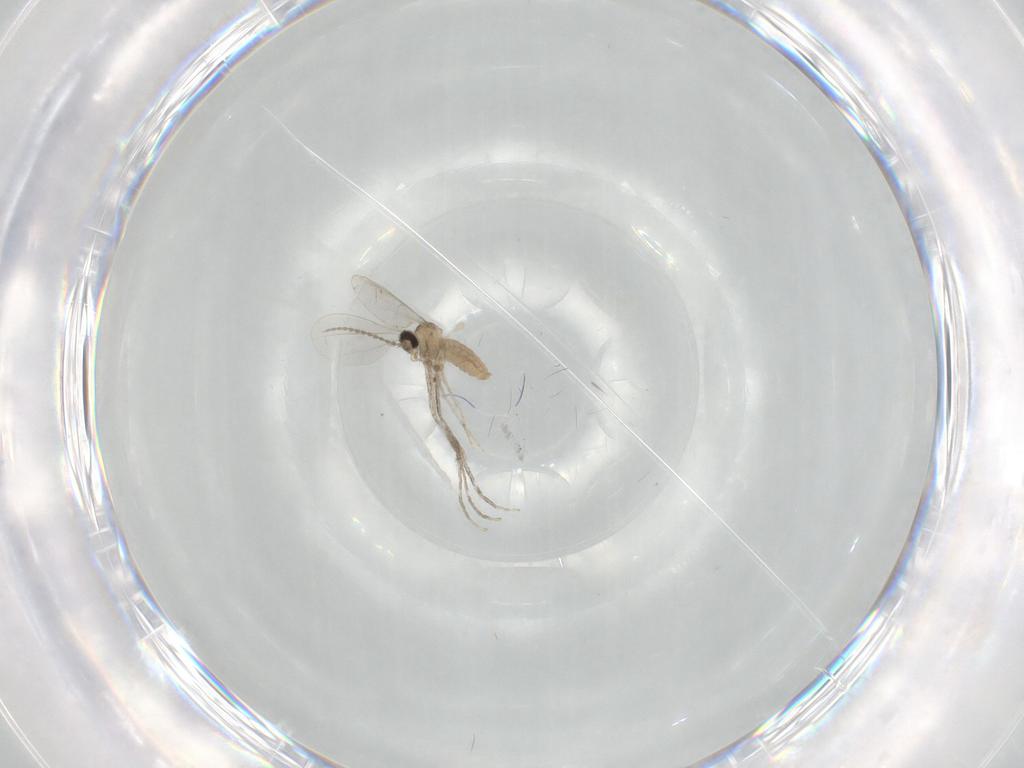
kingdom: Animalia
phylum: Arthropoda
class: Insecta
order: Diptera
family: Cecidomyiidae
